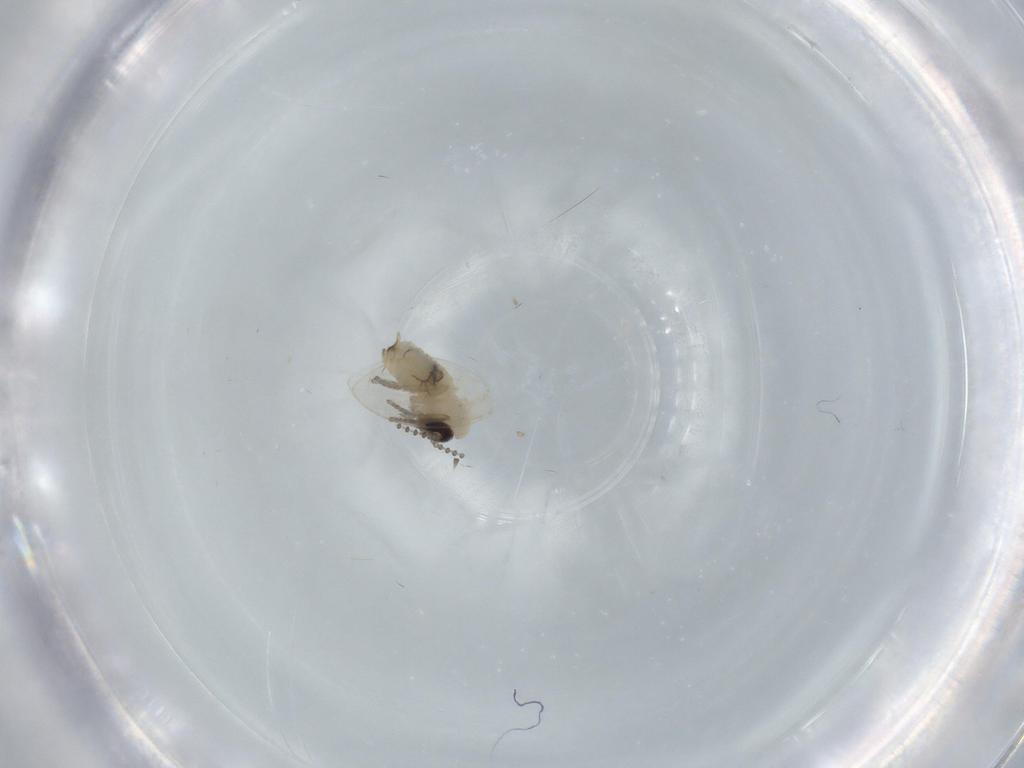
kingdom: Animalia
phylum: Arthropoda
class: Insecta
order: Diptera
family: Psychodidae
